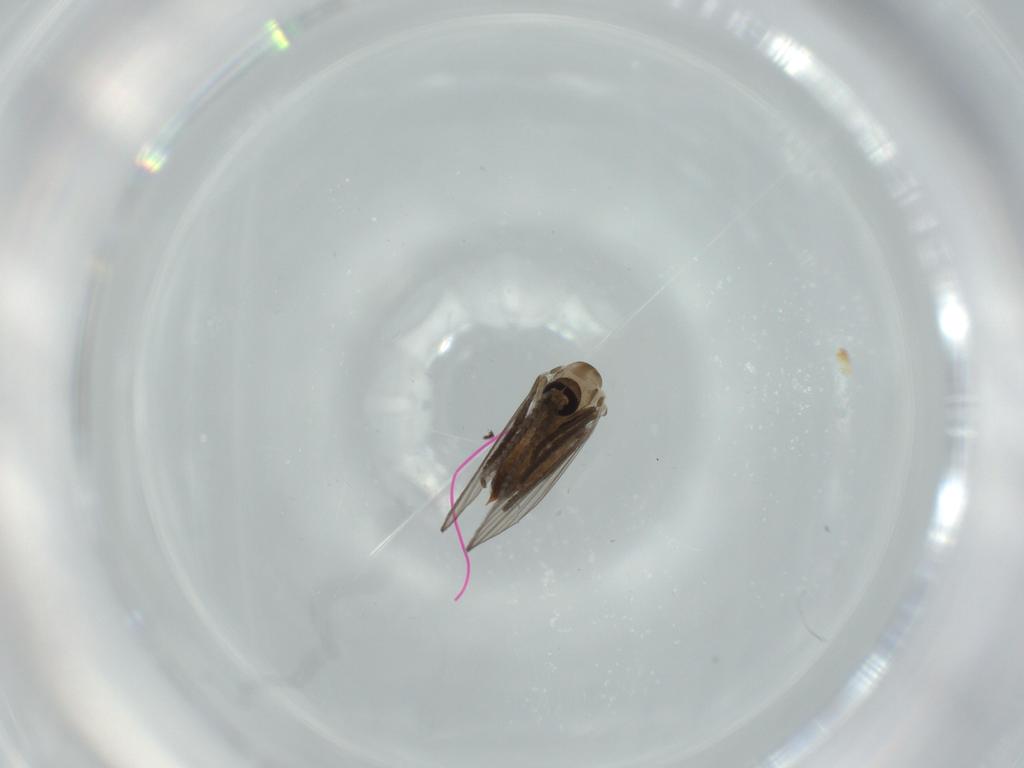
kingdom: Animalia
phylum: Arthropoda
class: Insecta
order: Diptera
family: Psychodidae
